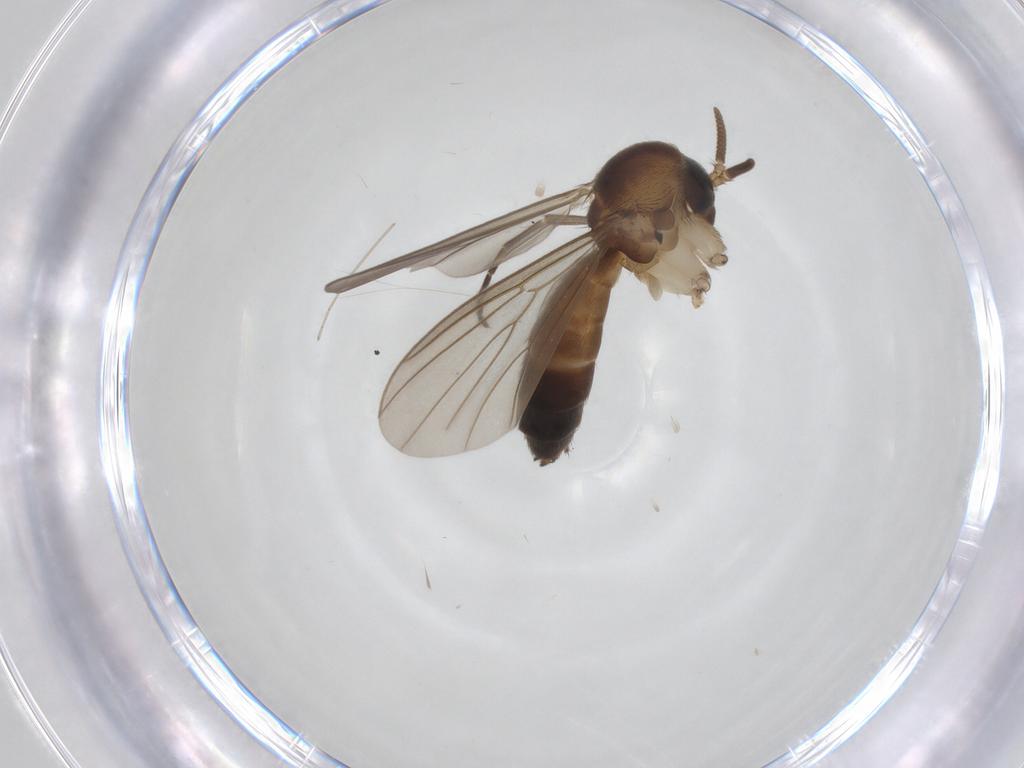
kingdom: Animalia
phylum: Arthropoda
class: Insecta
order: Diptera
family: Mycetophilidae
